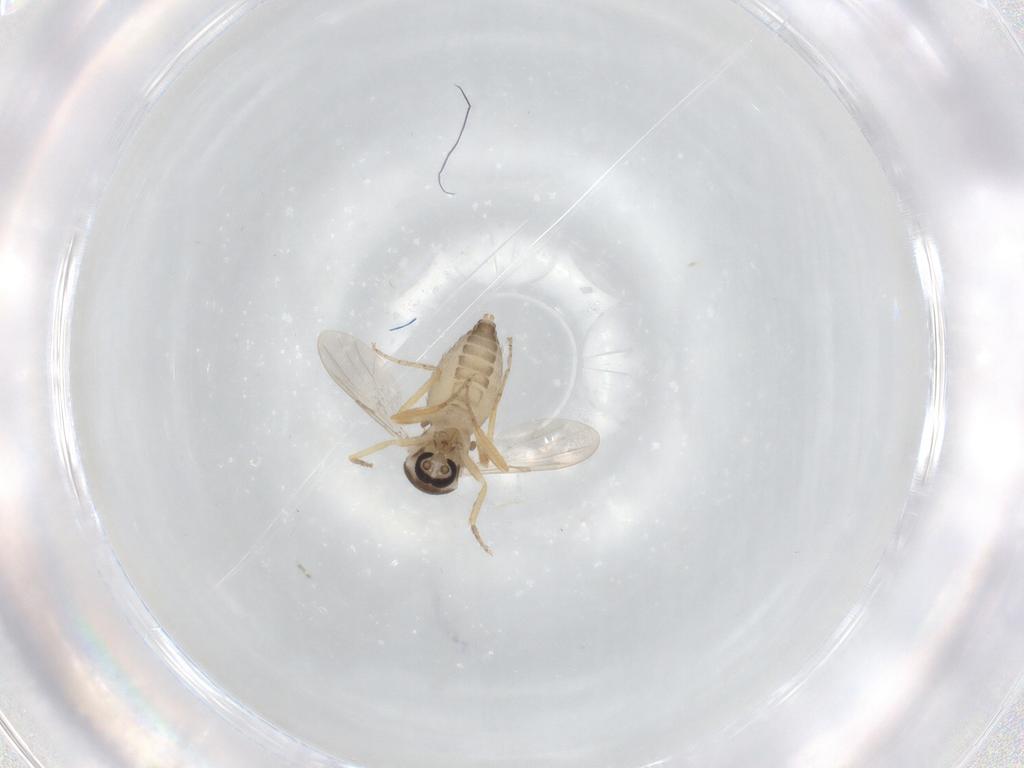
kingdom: Animalia
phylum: Arthropoda
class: Insecta
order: Diptera
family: Ceratopogonidae
